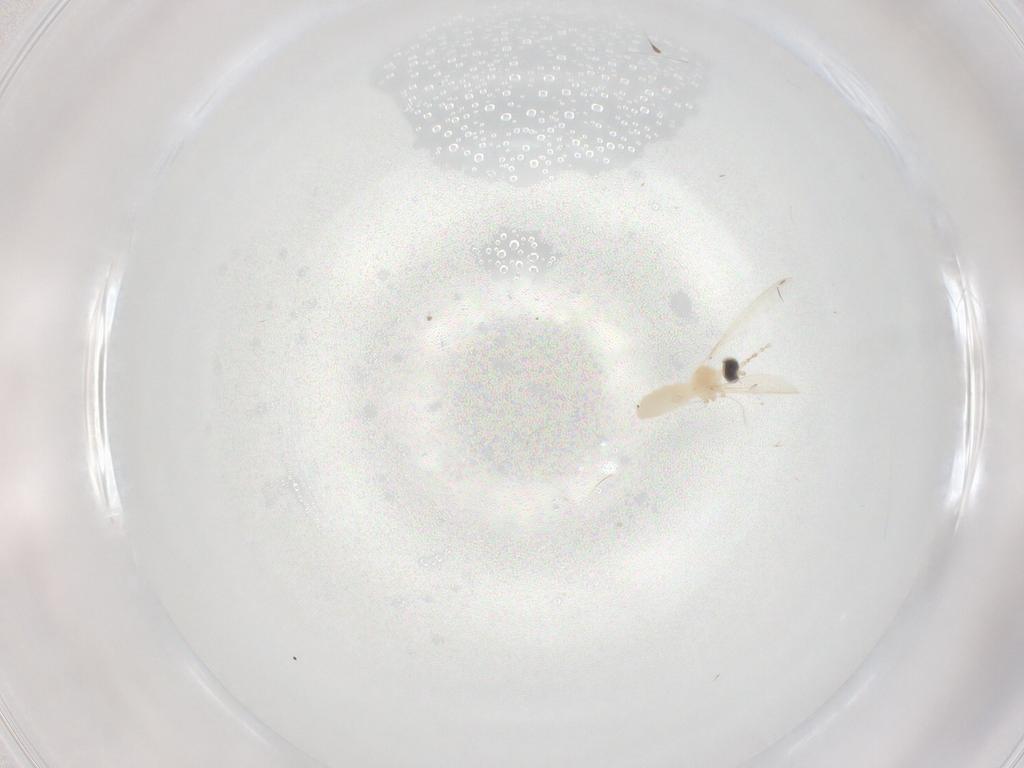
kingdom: Animalia
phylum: Arthropoda
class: Insecta
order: Diptera
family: Cecidomyiidae
